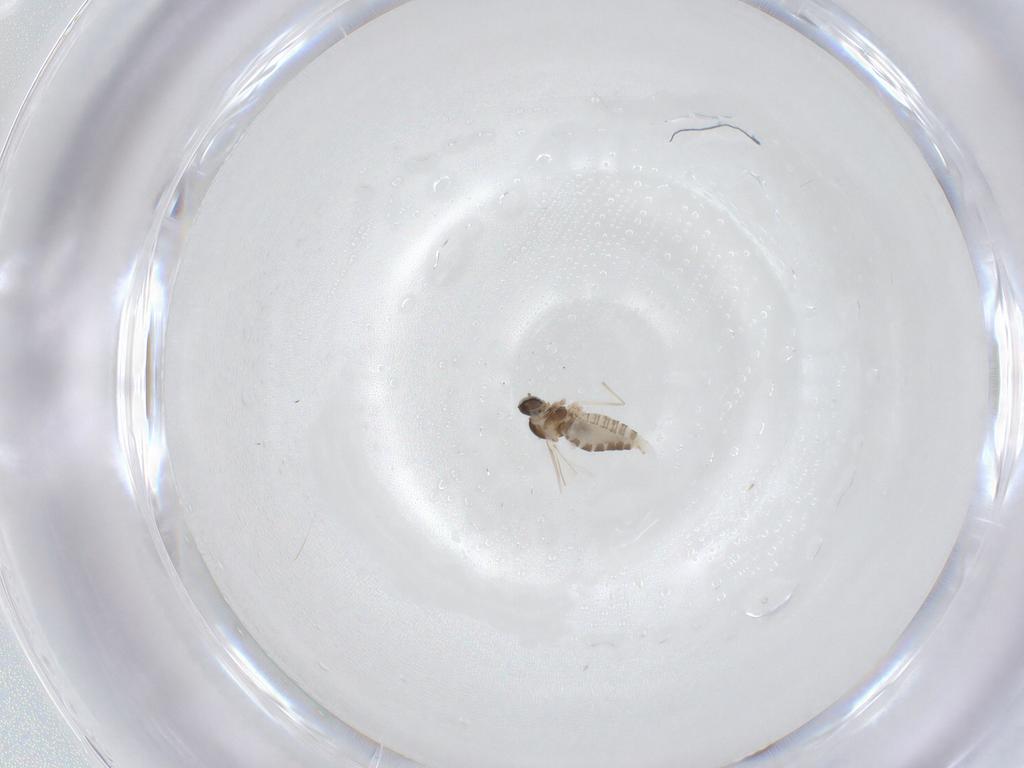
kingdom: Animalia
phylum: Arthropoda
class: Insecta
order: Diptera
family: Cecidomyiidae
